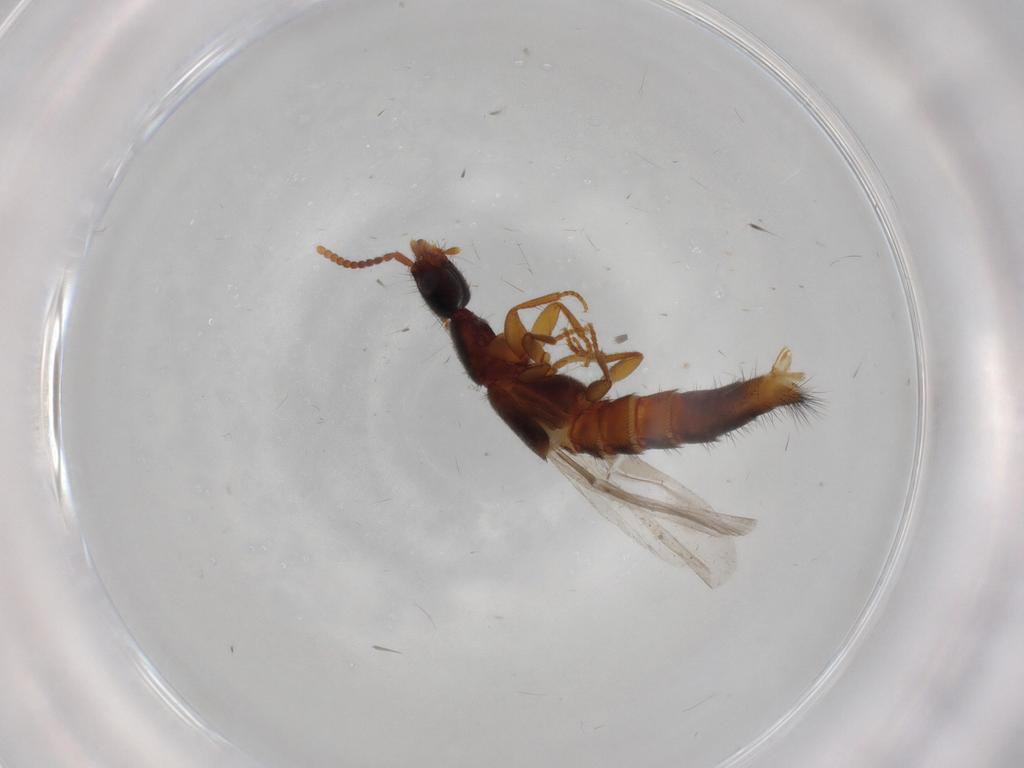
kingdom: Animalia
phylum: Arthropoda
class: Insecta
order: Coleoptera
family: Staphylinidae
